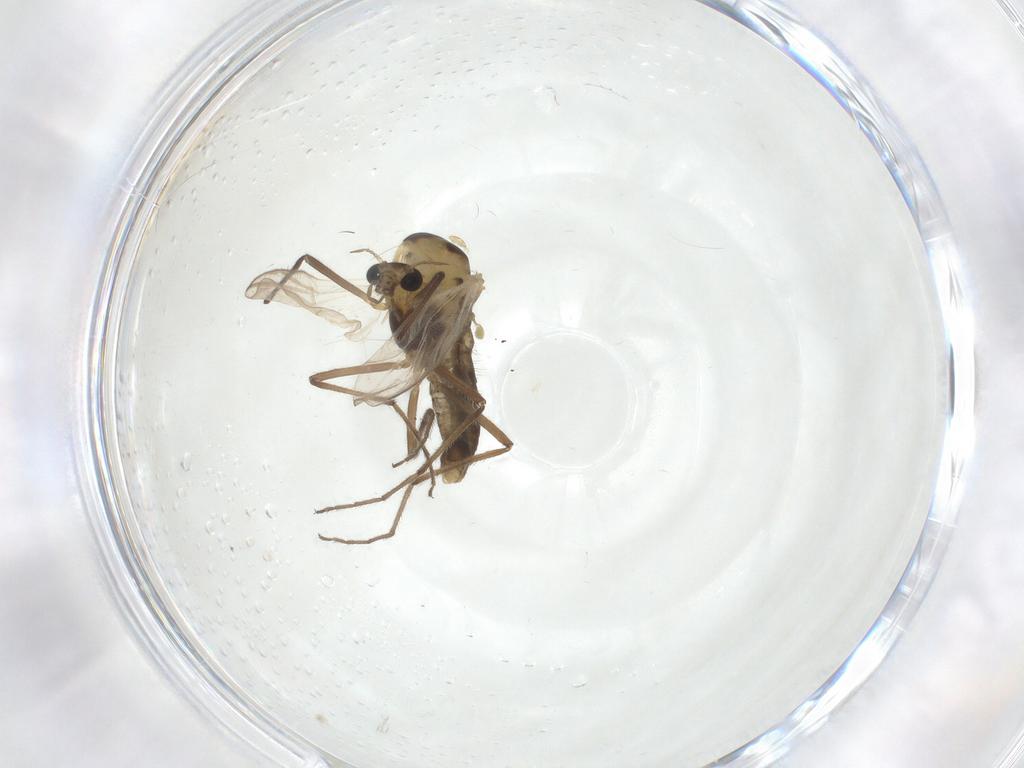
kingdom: Animalia
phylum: Arthropoda
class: Insecta
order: Diptera
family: Chironomidae
